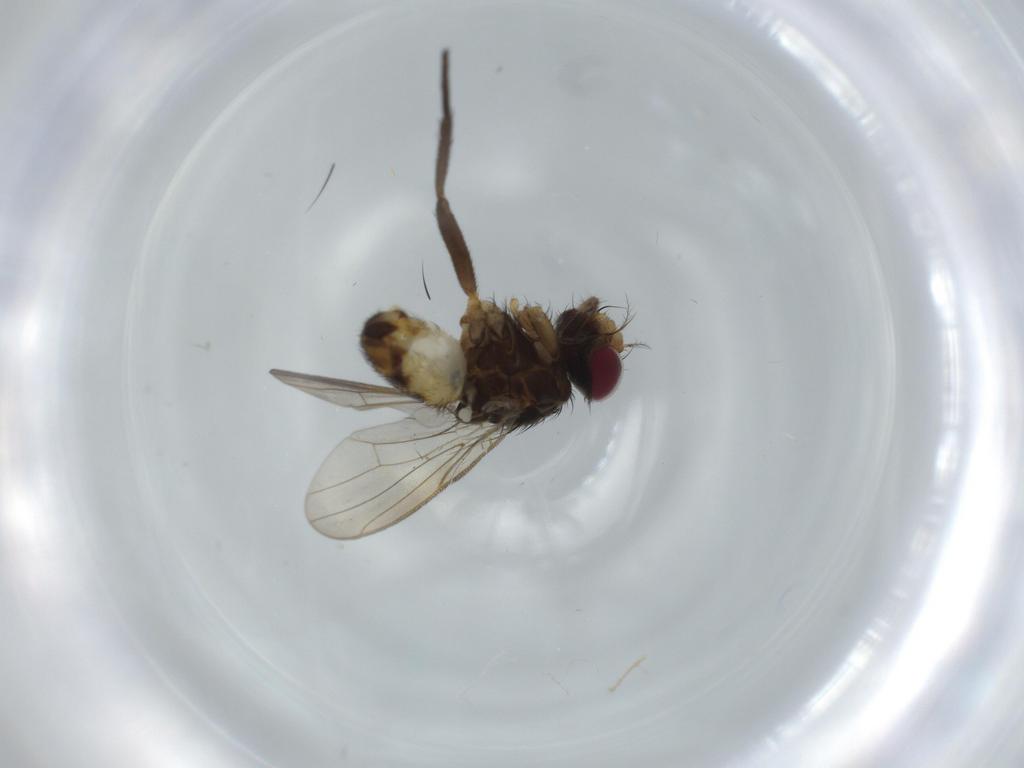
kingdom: Animalia
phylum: Arthropoda
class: Insecta
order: Diptera
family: Anthomyiidae
